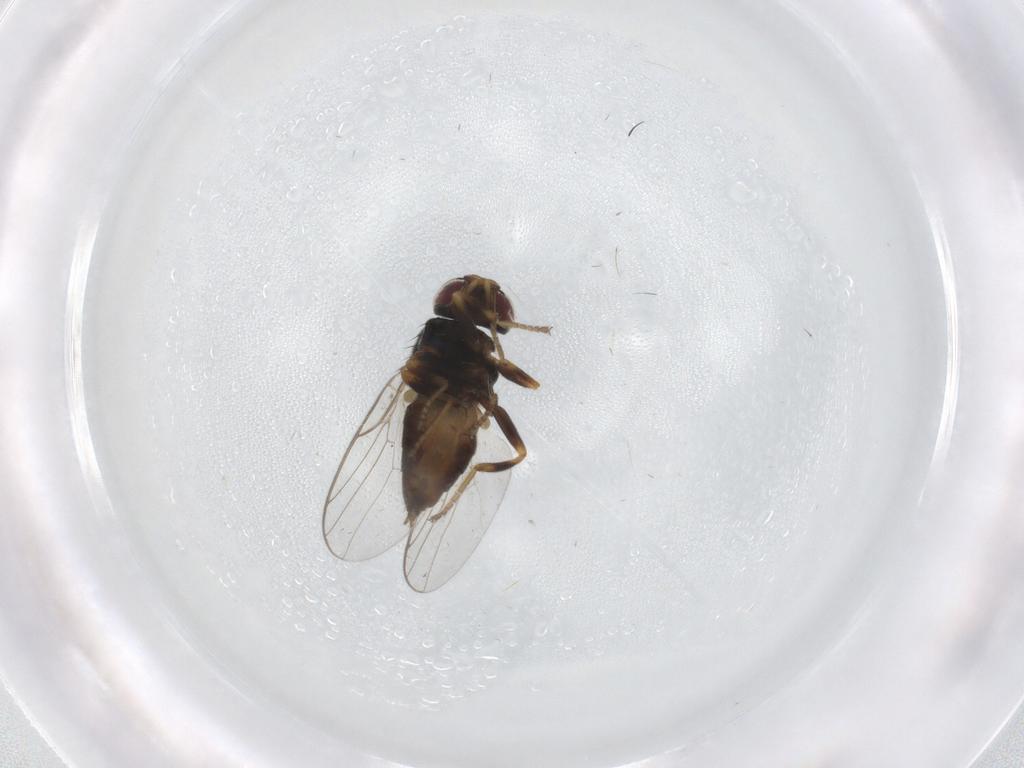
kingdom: Animalia
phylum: Arthropoda
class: Insecta
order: Diptera
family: Chloropidae
